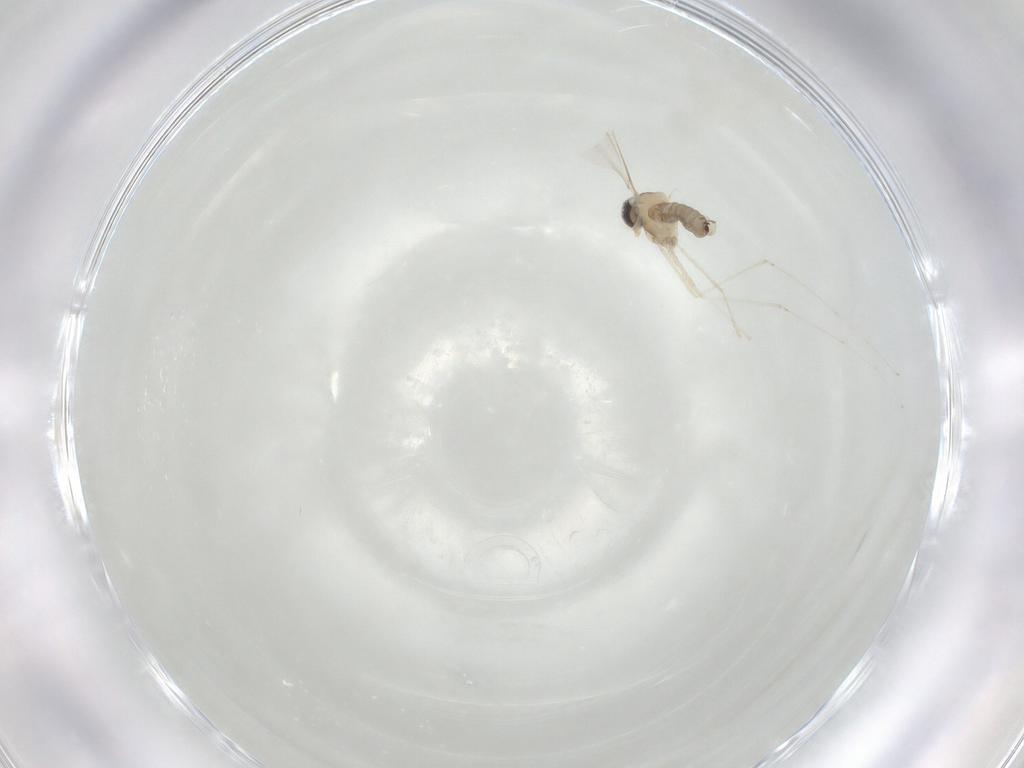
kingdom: Animalia
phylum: Arthropoda
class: Insecta
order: Diptera
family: Cecidomyiidae
